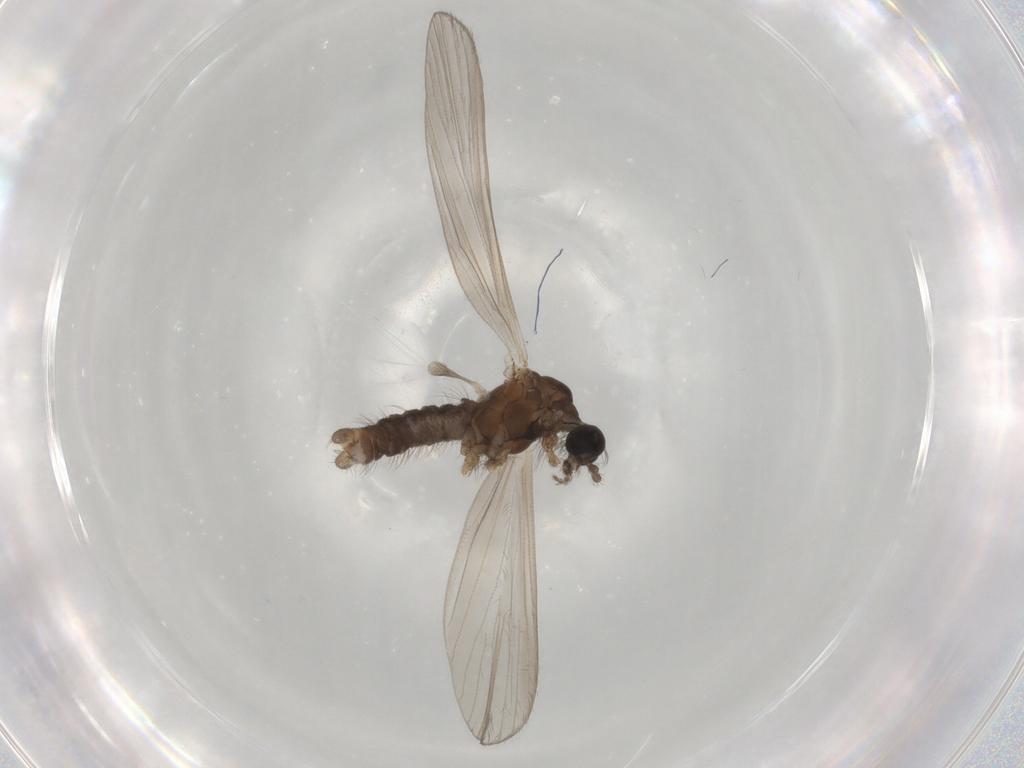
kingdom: Animalia
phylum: Arthropoda
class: Insecta
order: Diptera
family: Limoniidae
